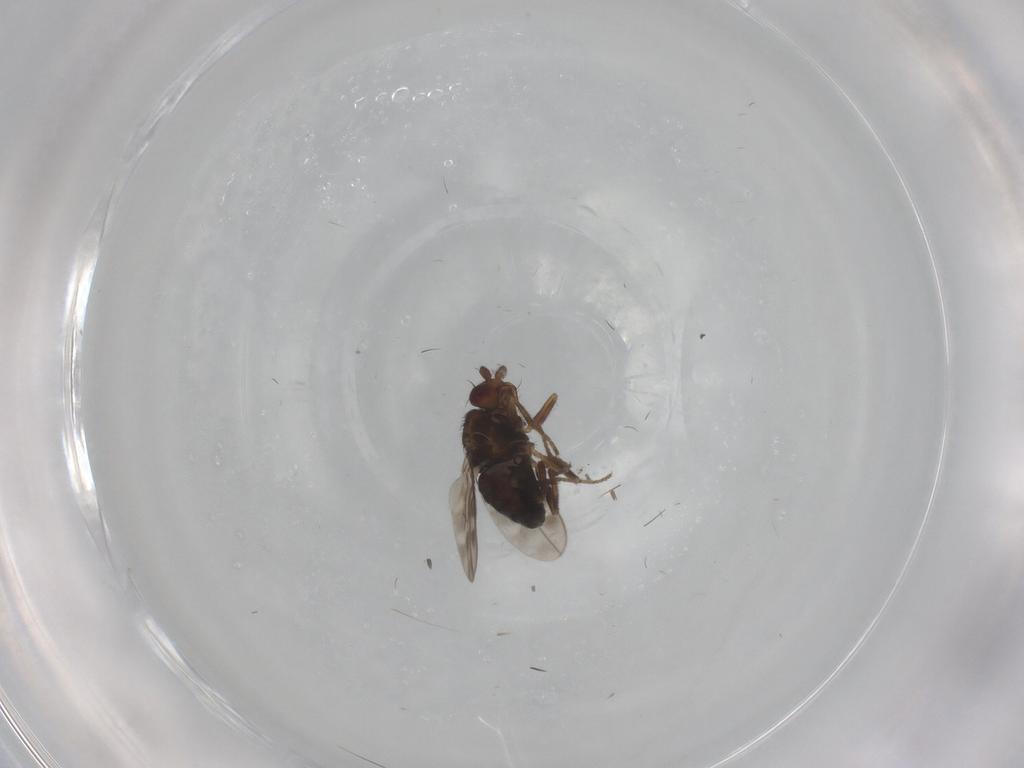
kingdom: Animalia
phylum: Arthropoda
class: Insecta
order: Diptera
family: Sphaeroceridae
